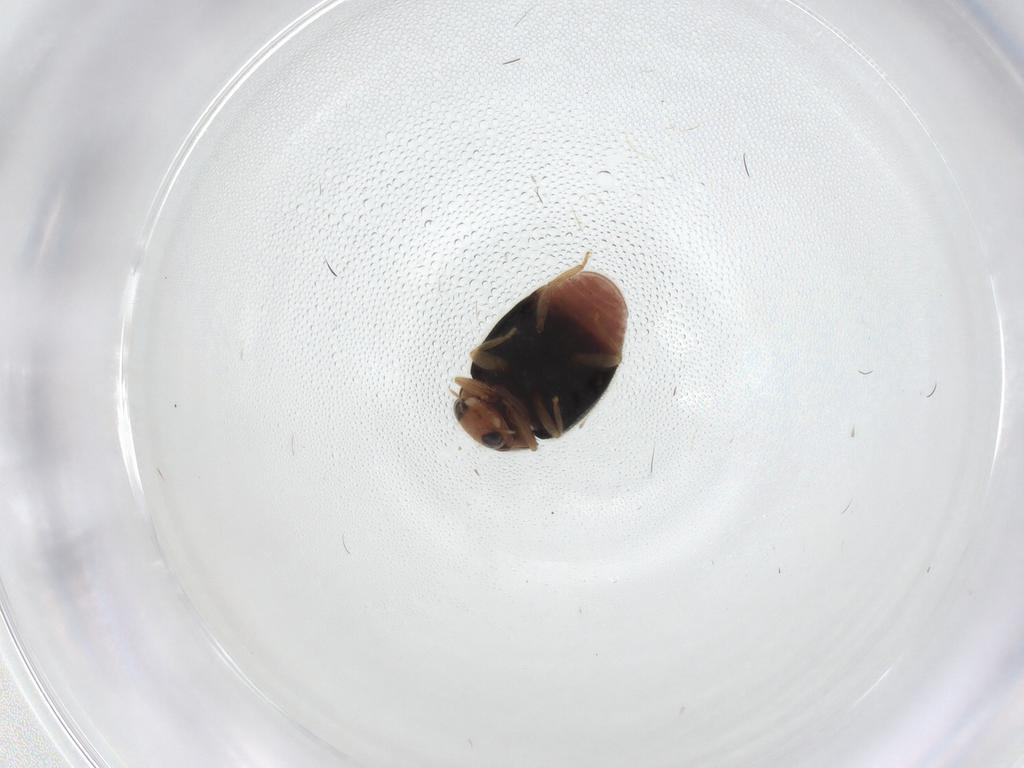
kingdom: Animalia
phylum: Arthropoda
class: Insecta
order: Coleoptera
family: Coccinellidae
